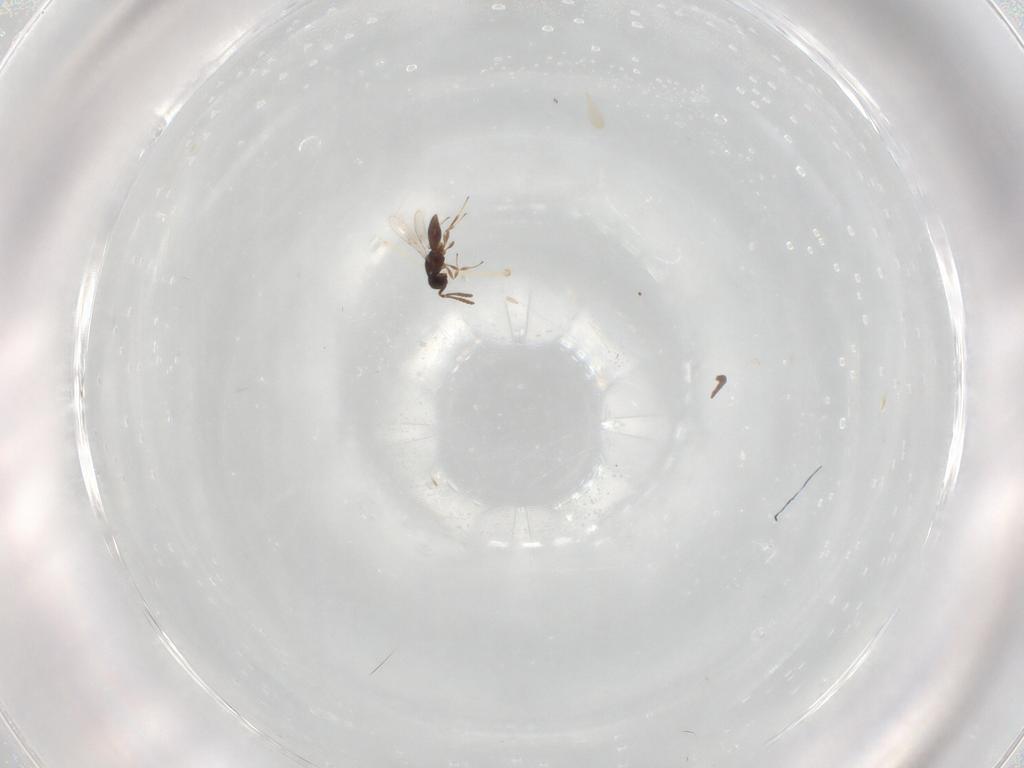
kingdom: Animalia
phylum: Arthropoda
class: Insecta
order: Hymenoptera
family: Scelionidae
